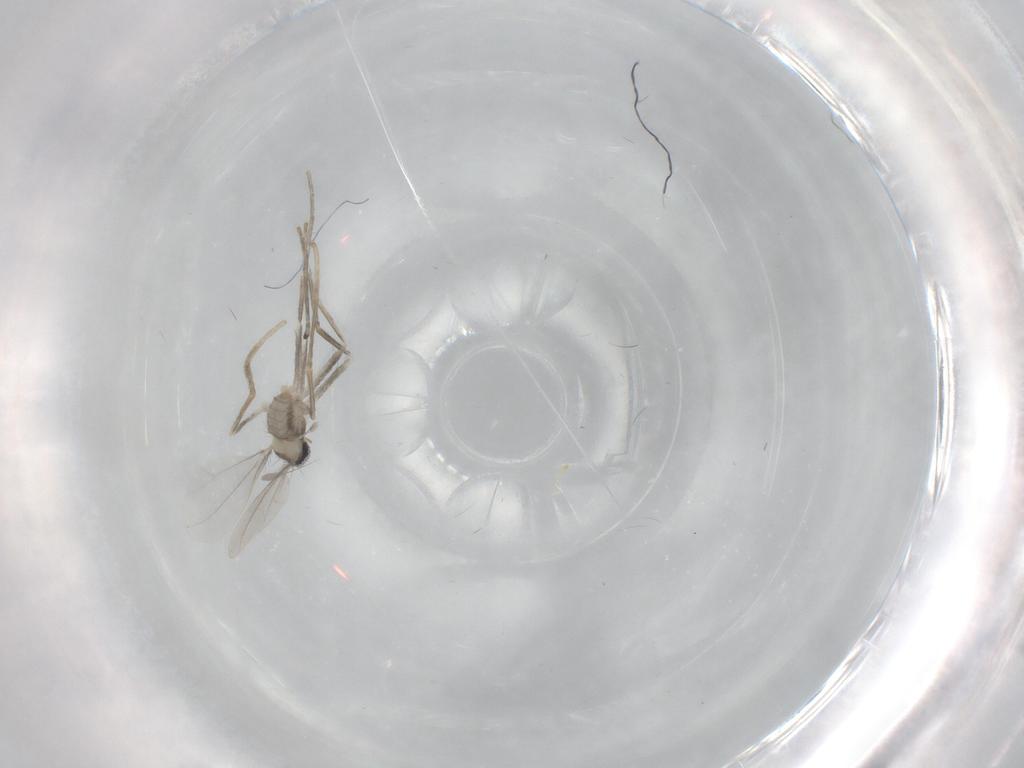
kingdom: Animalia
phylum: Arthropoda
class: Insecta
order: Diptera
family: Cecidomyiidae
